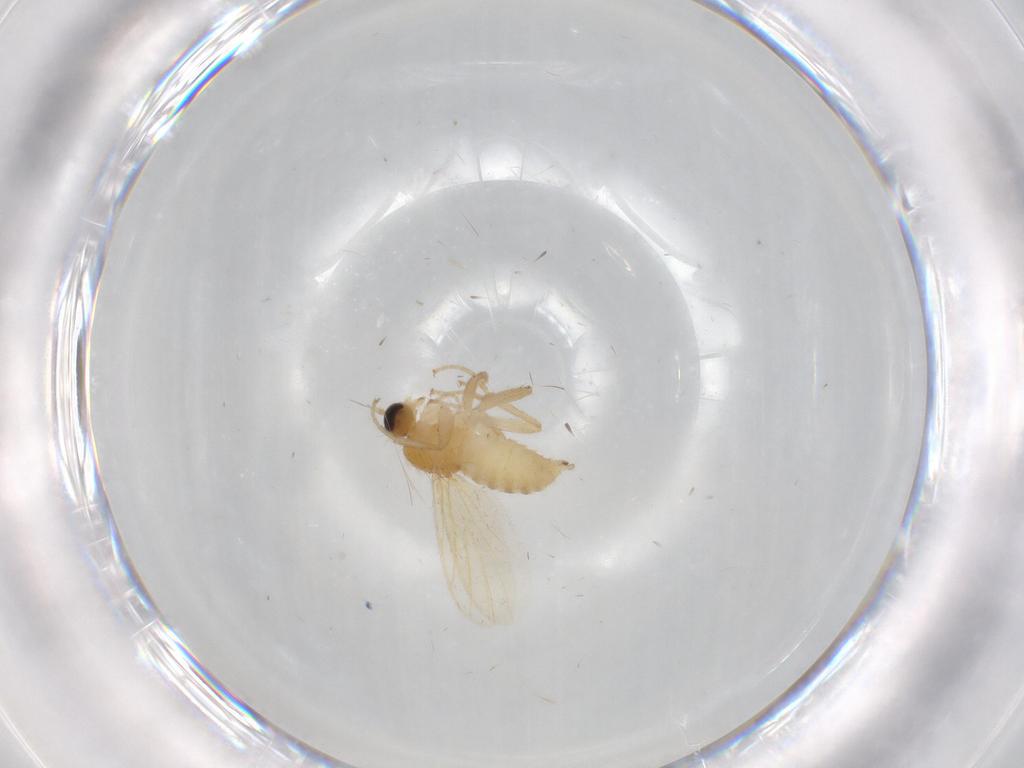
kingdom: Animalia
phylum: Arthropoda
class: Insecta
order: Diptera
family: Hybotidae
